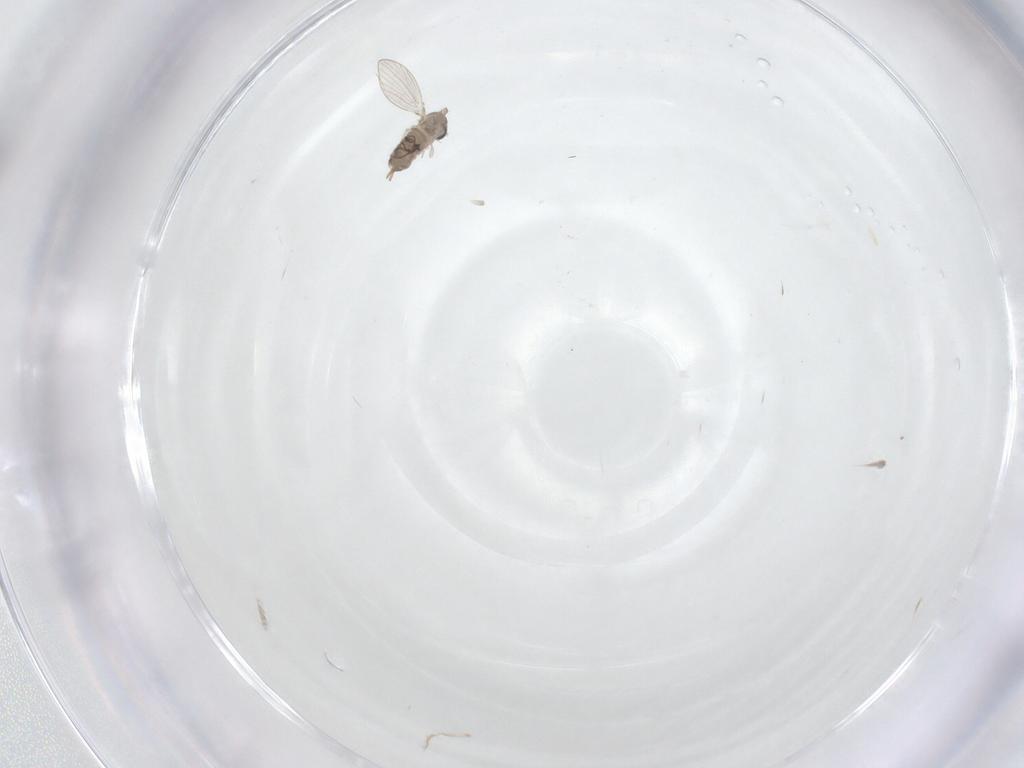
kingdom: Animalia
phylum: Arthropoda
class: Insecta
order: Diptera
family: Psychodidae
